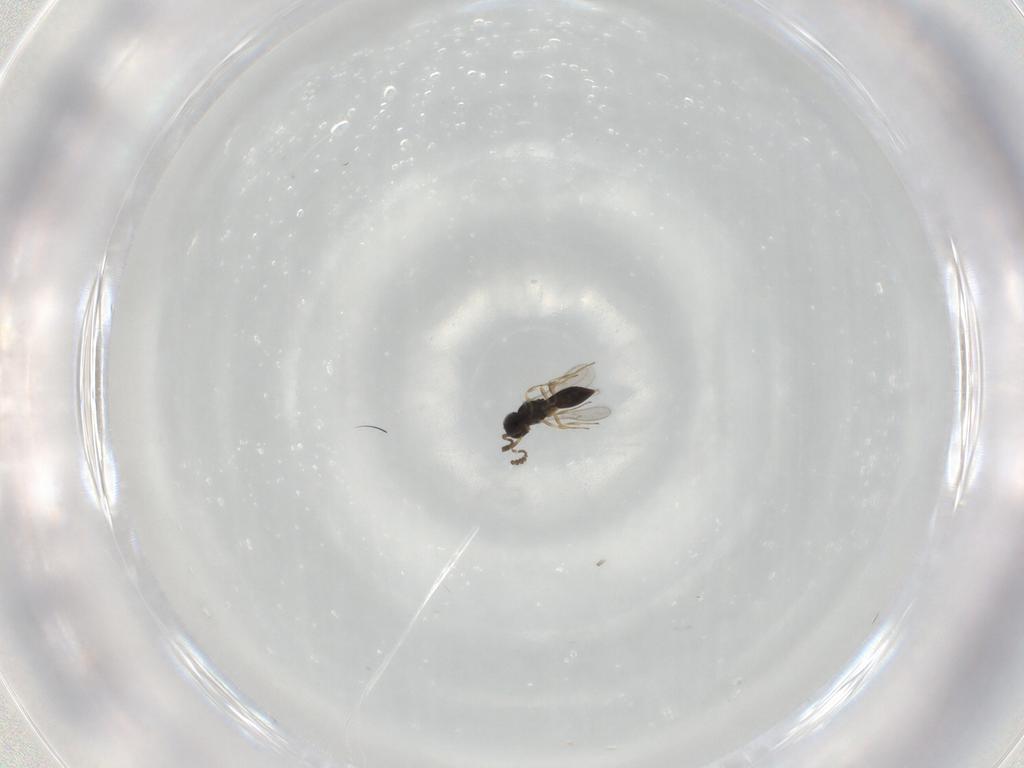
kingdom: Animalia
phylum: Arthropoda
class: Insecta
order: Hymenoptera
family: Scelionidae
